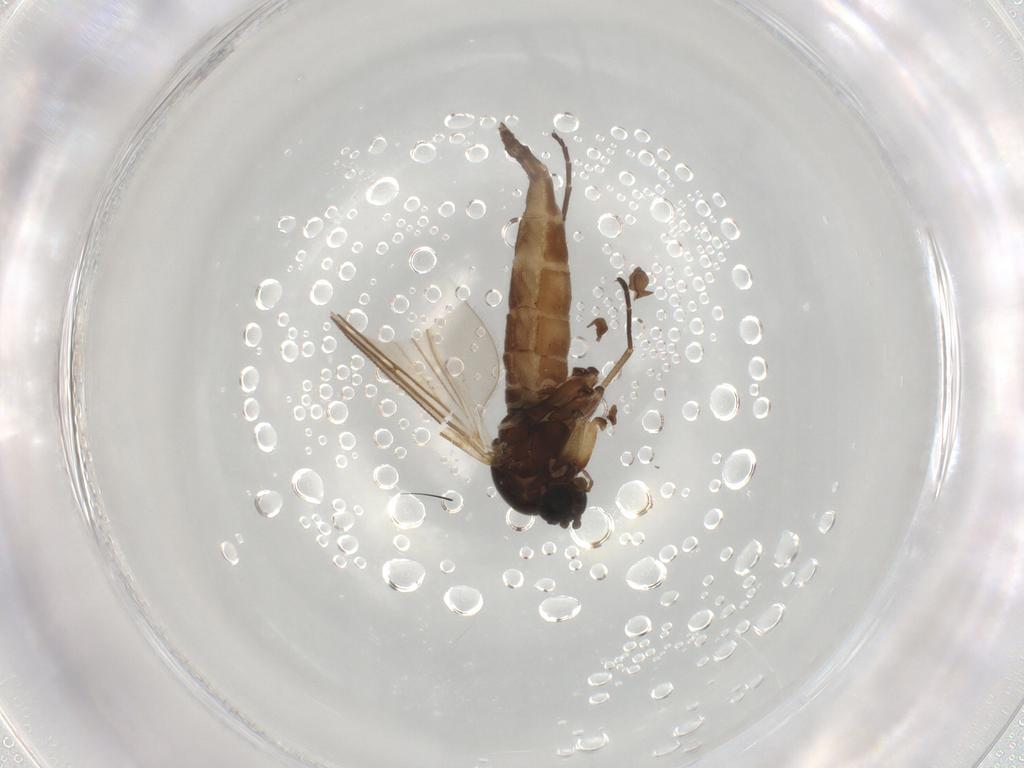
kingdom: Animalia
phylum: Arthropoda
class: Insecta
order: Diptera
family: Sciaridae
